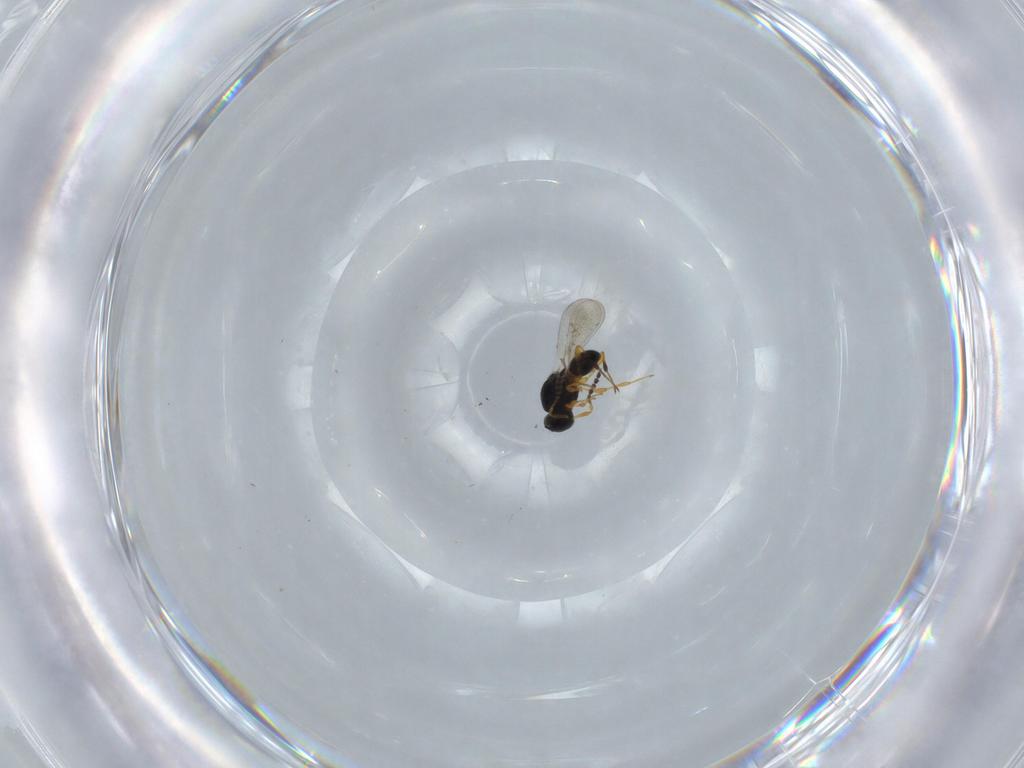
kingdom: Animalia
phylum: Arthropoda
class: Insecta
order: Hymenoptera
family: Platygastridae
